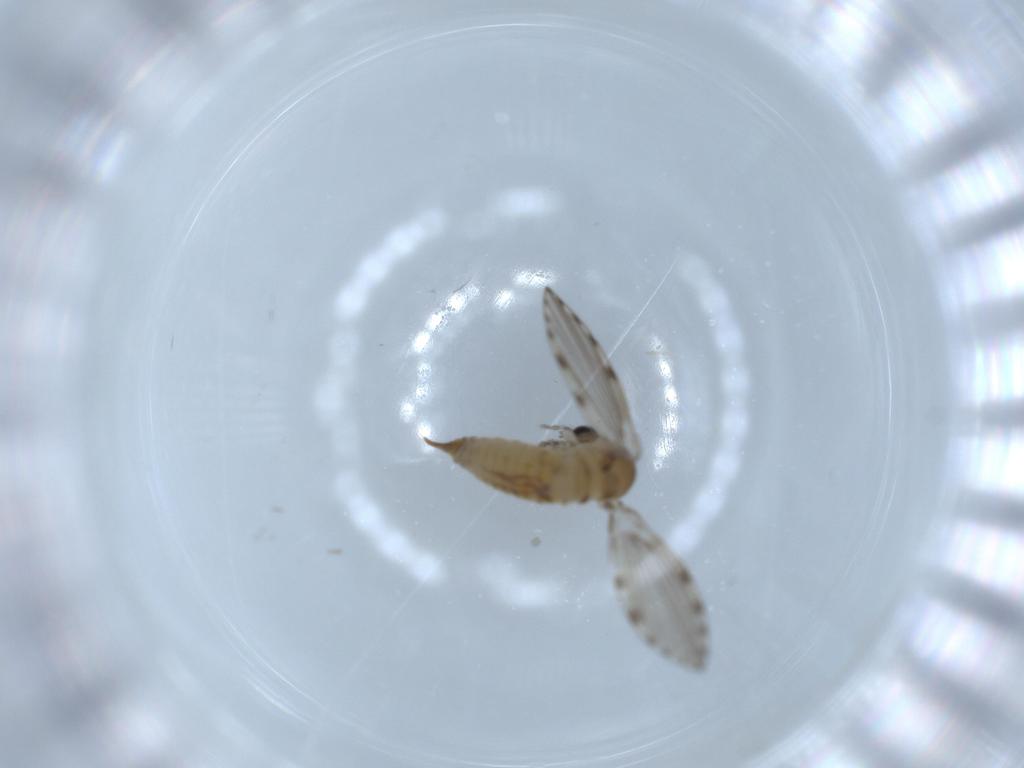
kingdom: Animalia
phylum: Arthropoda
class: Insecta
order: Diptera
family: Psychodidae
